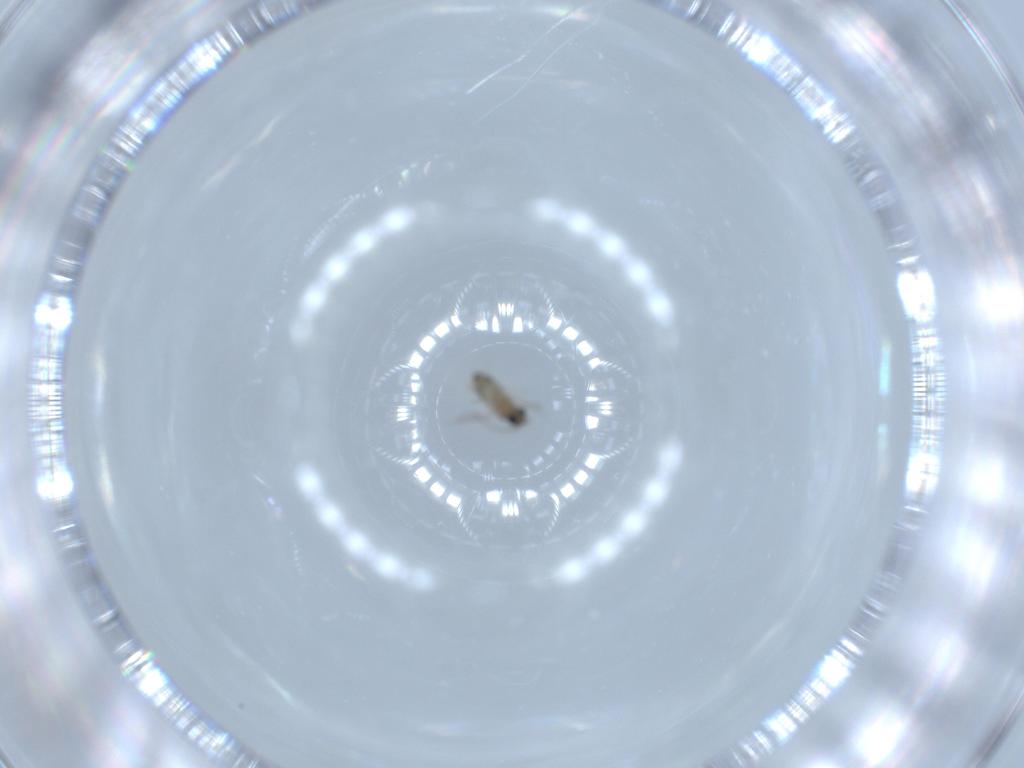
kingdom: Animalia
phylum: Arthropoda
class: Insecta
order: Diptera
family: Cecidomyiidae
